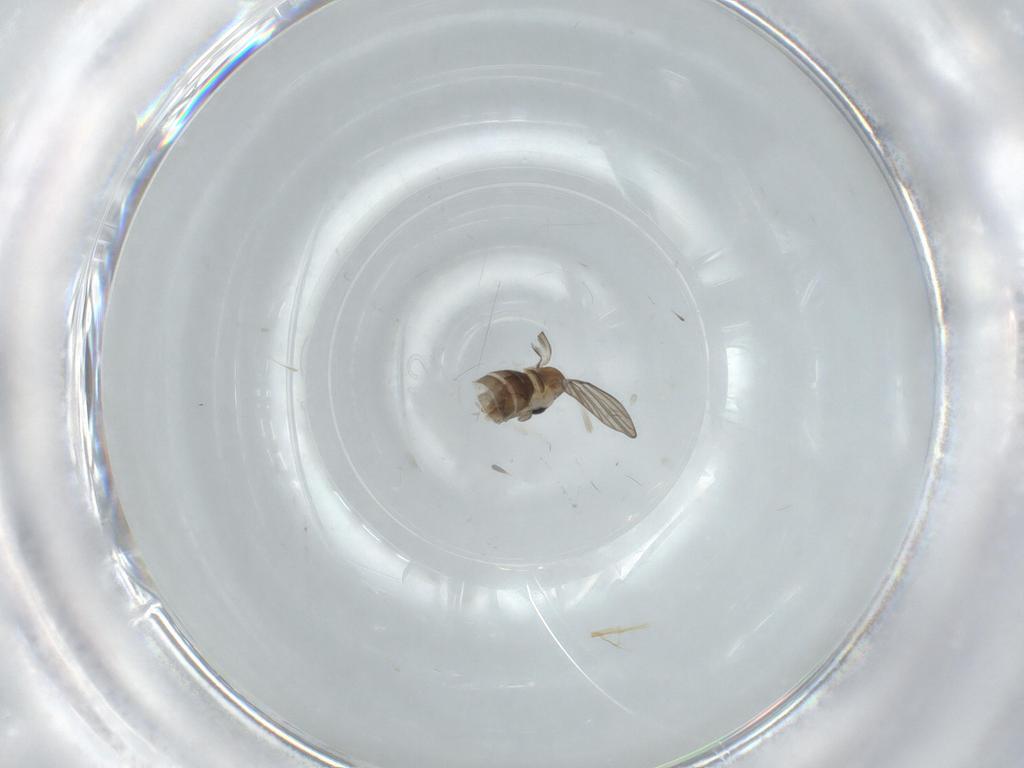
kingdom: Animalia
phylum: Arthropoda
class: Insecta
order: Diptera
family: Psychodidae
